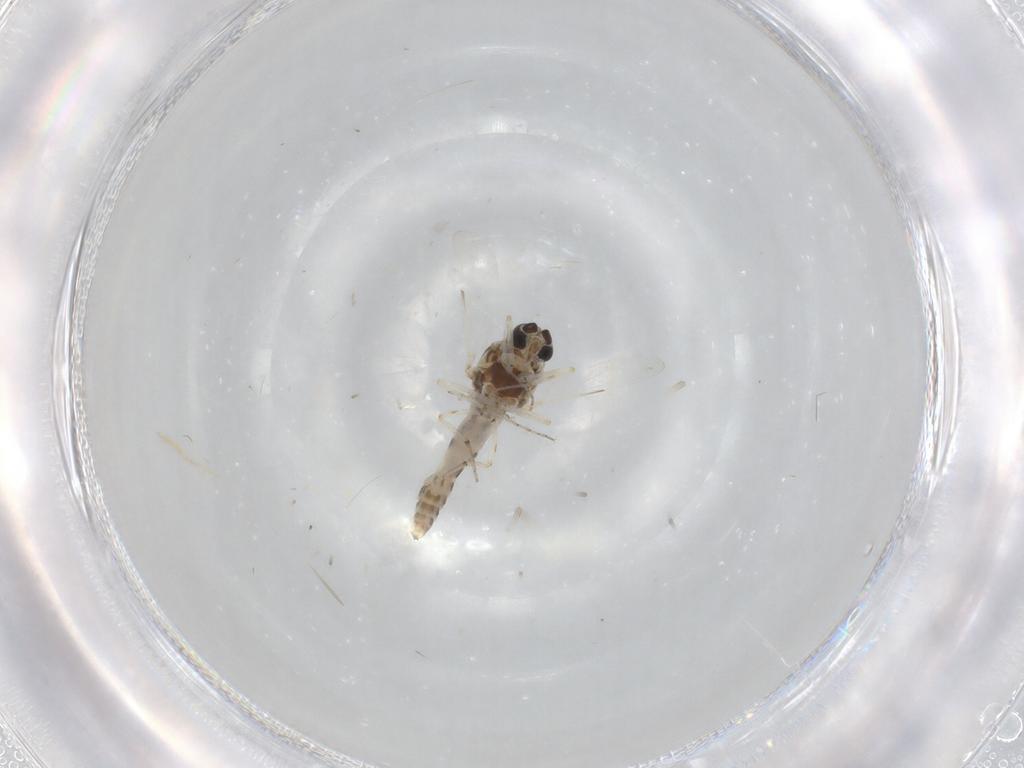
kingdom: Animalia
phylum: Arthropoda
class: Insecta
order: Diptera
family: Ceratopogonidae
